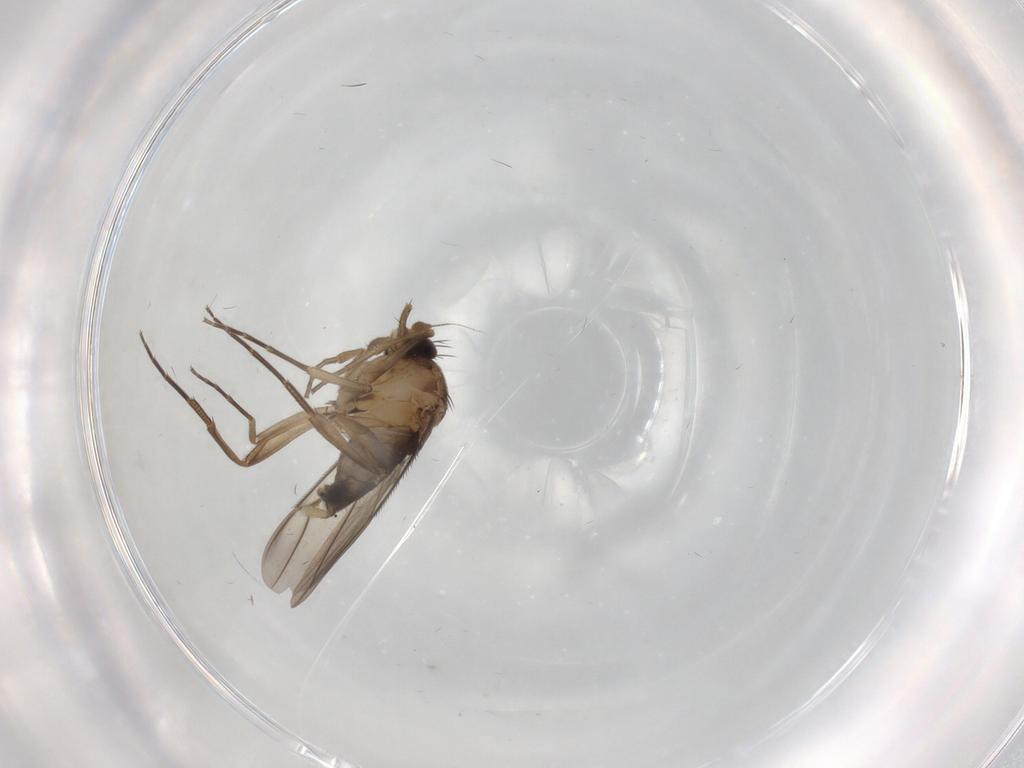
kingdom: Animalia
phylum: Arthropoda
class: Insecta
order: Diptera
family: Phoridae
